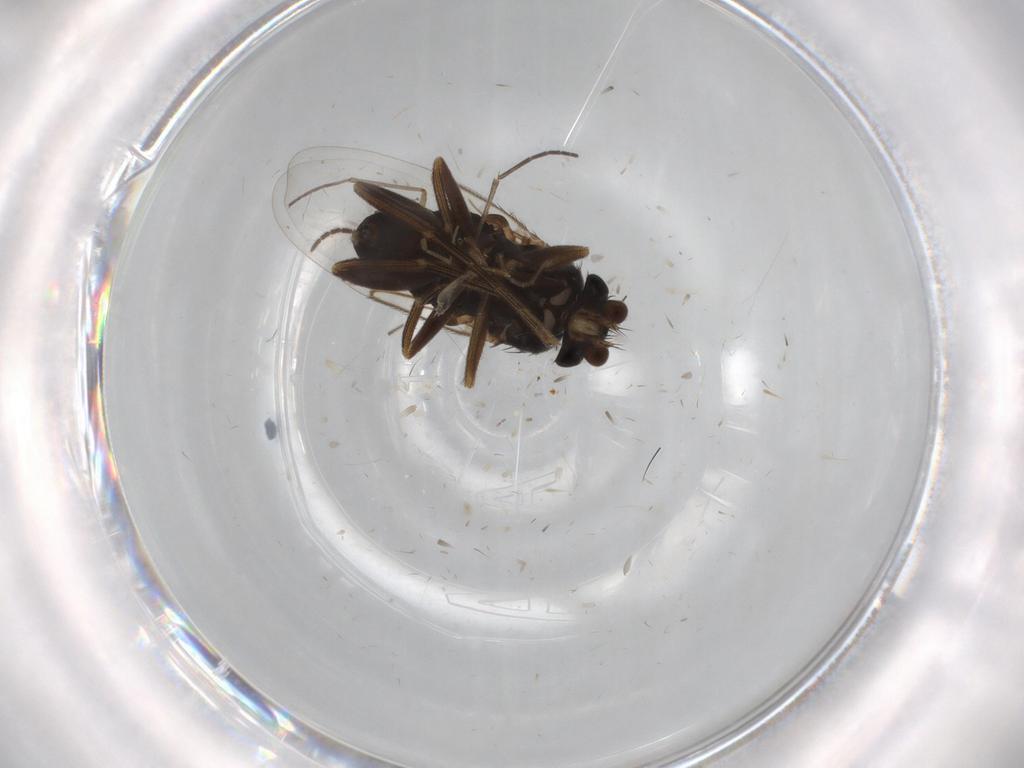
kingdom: Animalia
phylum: Arthropoda
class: Insecta
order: Diptera
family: Phoridae
